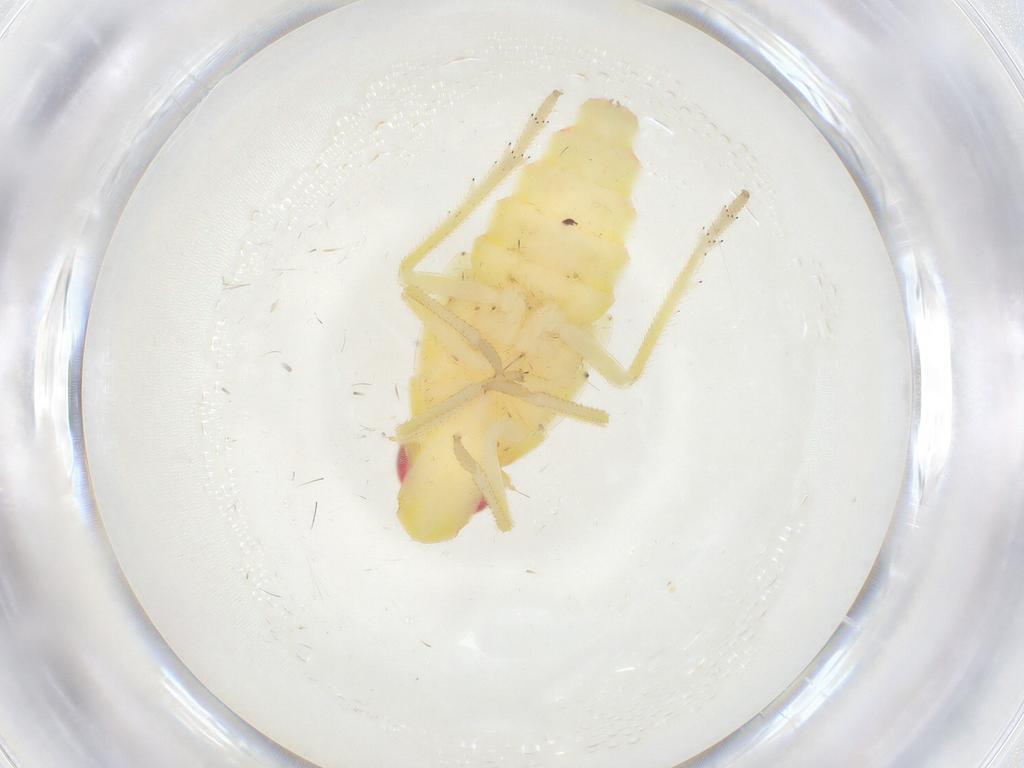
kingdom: Animalia
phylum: Arthropoda
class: Insecta
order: Hemiptera
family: Tropiduchidae
